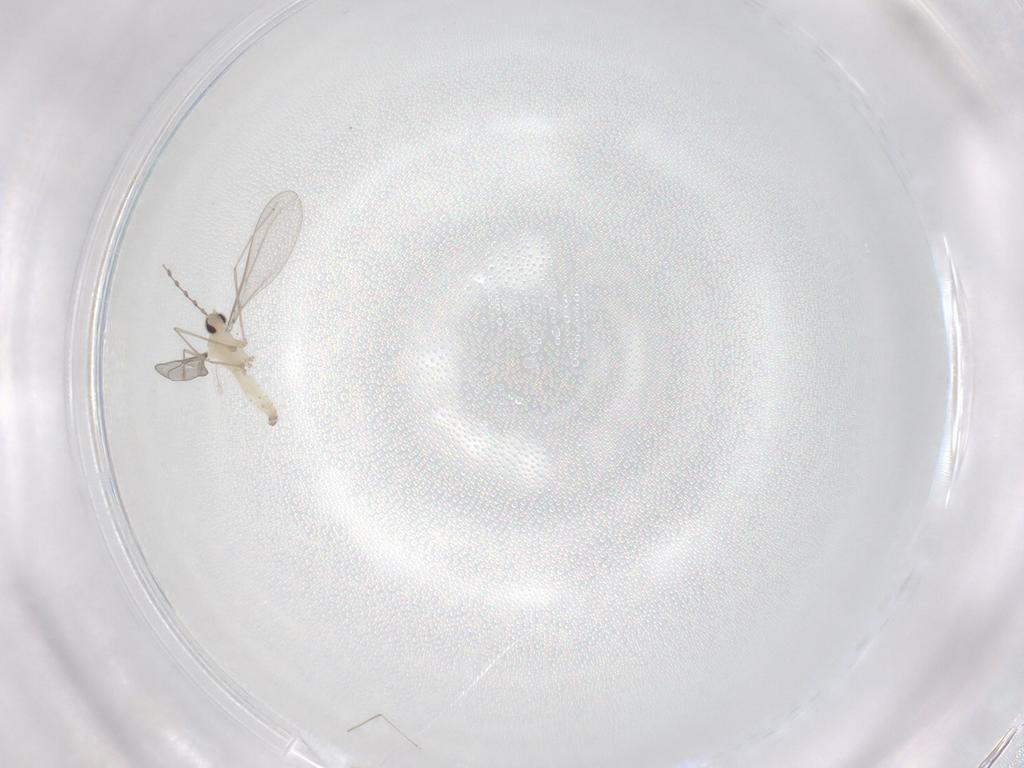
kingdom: Animalia
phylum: Arthropoda
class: Insecta
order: Diptera
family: Cecidomyiidae
